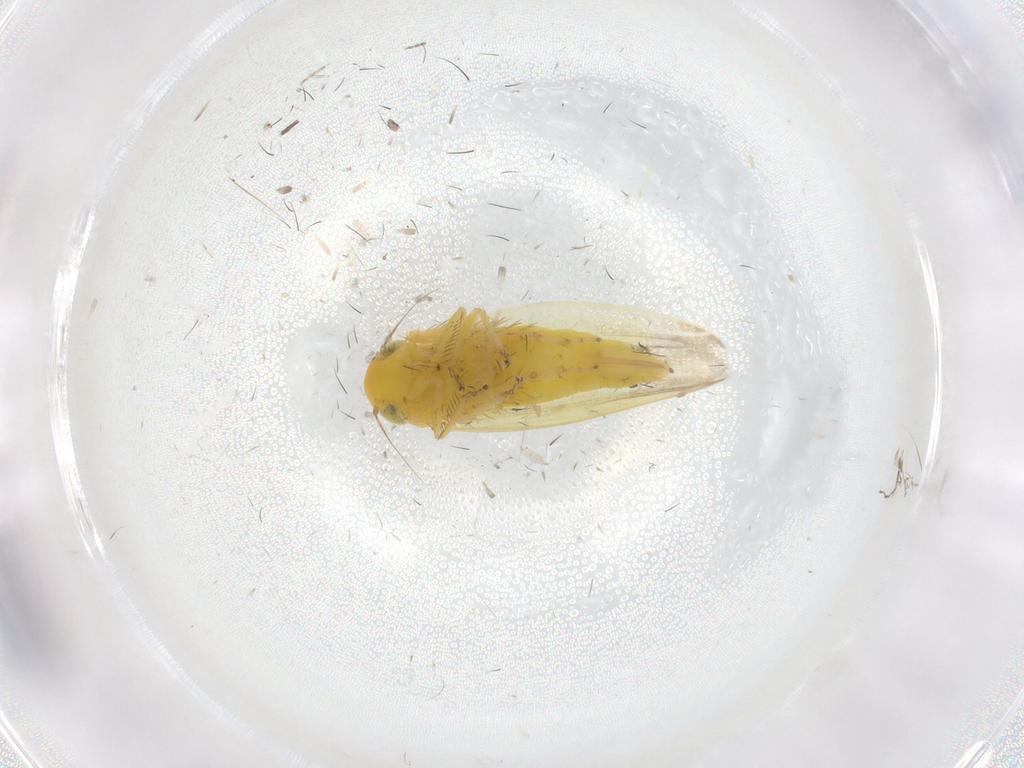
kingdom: Animalia
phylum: Arthropoda
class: Insecta
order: Hemiptera
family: Cicadellidae
